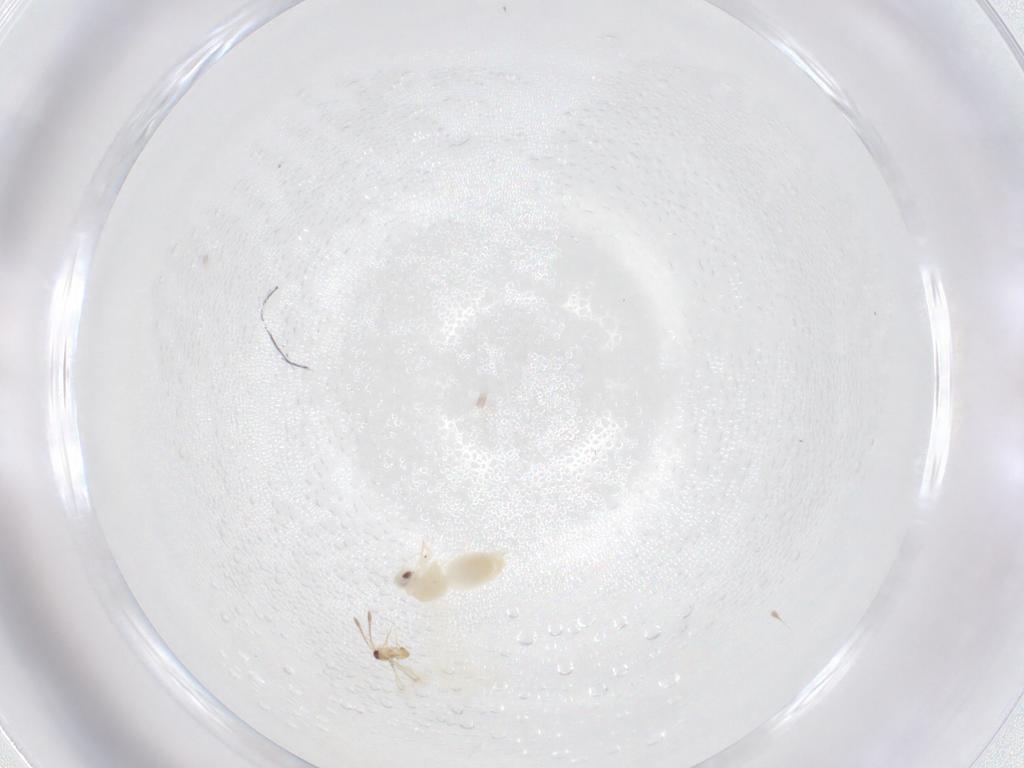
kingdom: Animalia
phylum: Arthropoda
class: Insecta
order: Hemiptera
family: Aleyrodidae
